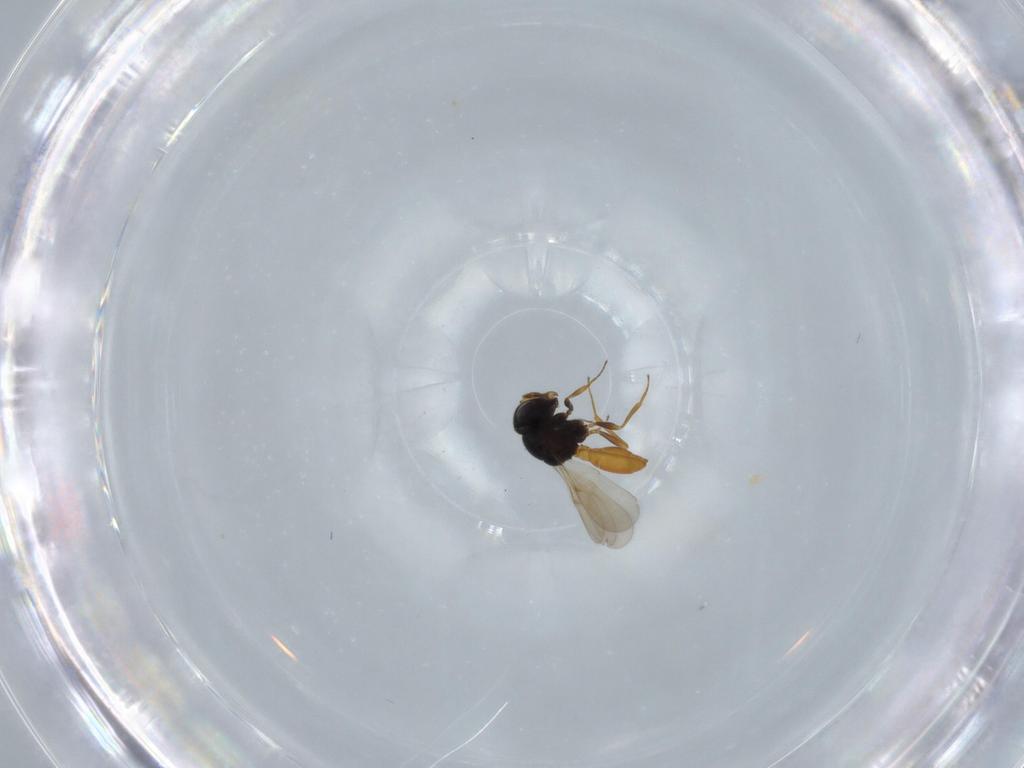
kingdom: Animalia
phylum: Arthropoda
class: Insecta
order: Hymenoptera
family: Scelionidae
